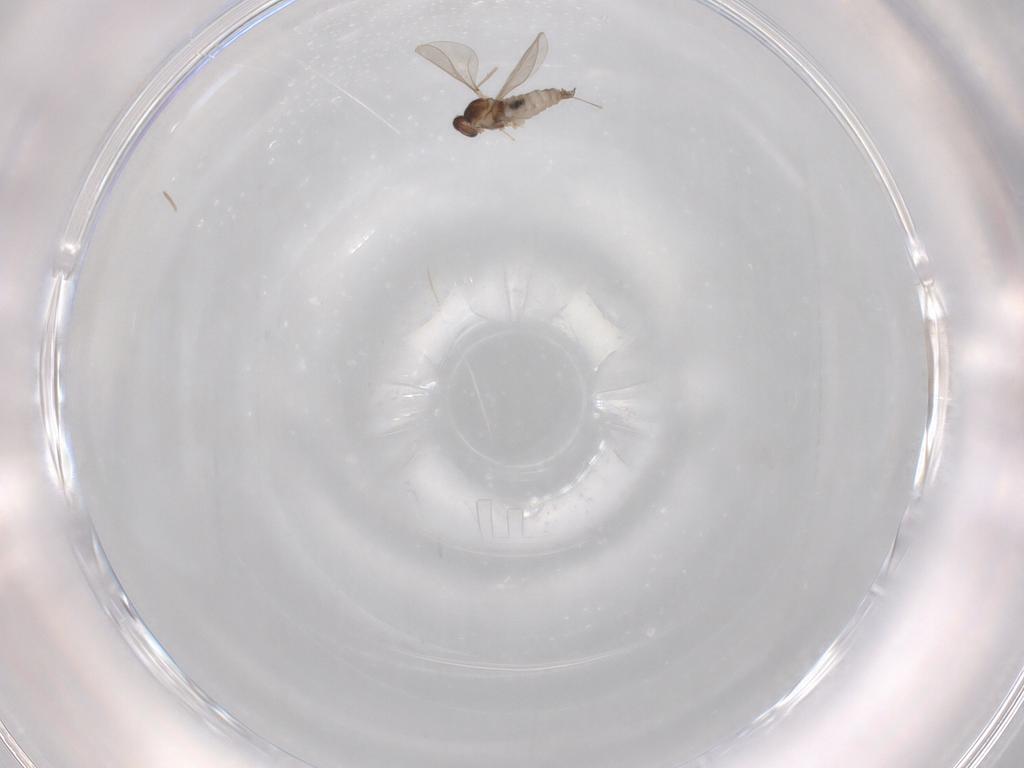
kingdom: Animalia
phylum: Arthropoda
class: Insecta
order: Diptera
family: Cecidomyiidae
